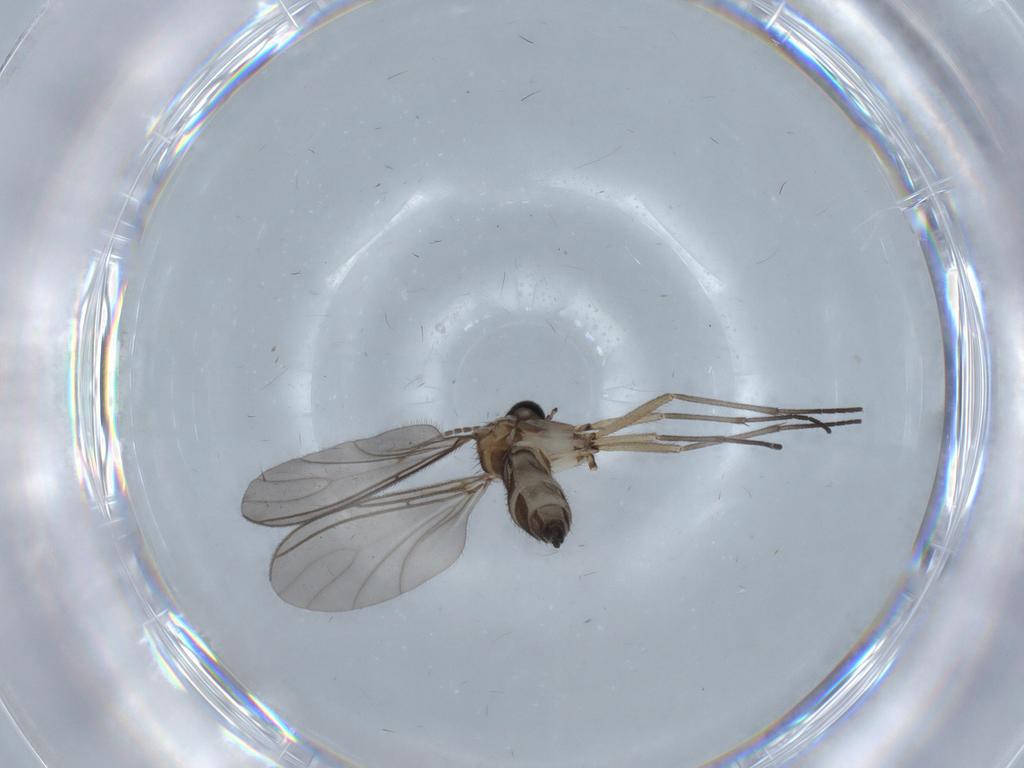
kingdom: Animalia
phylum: Arthropoda
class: Insecta
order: Diptera
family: Sciaridae
